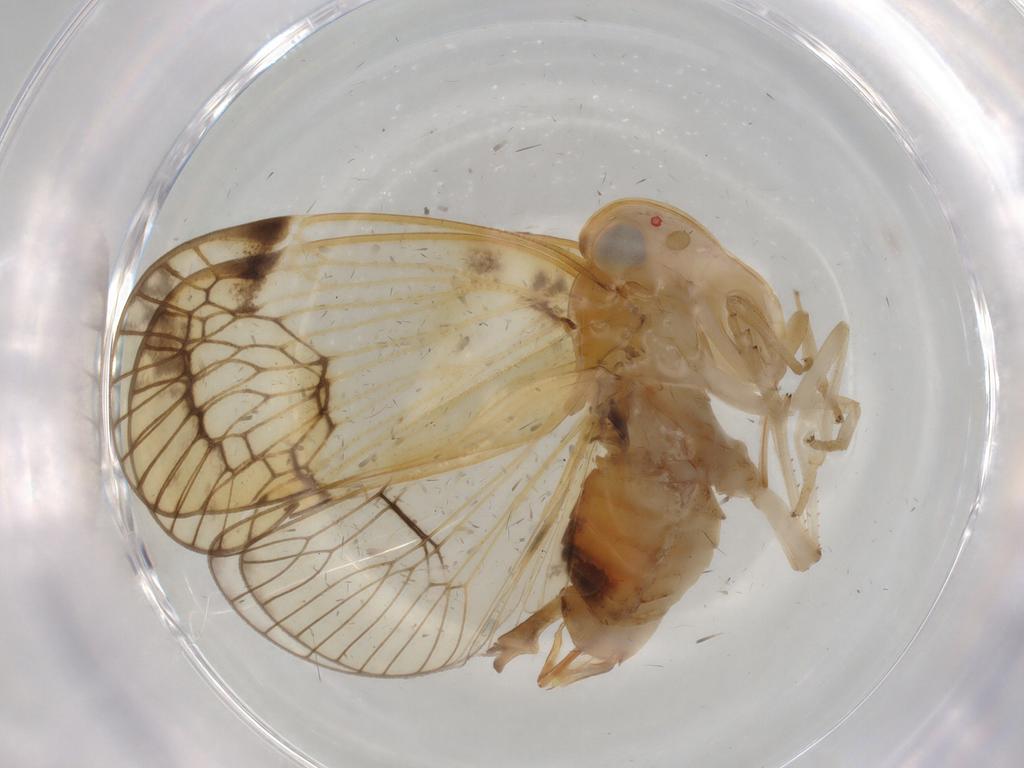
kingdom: Animalia
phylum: Arthropoda
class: Insecta
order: Hemiptera
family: Cixiidae
